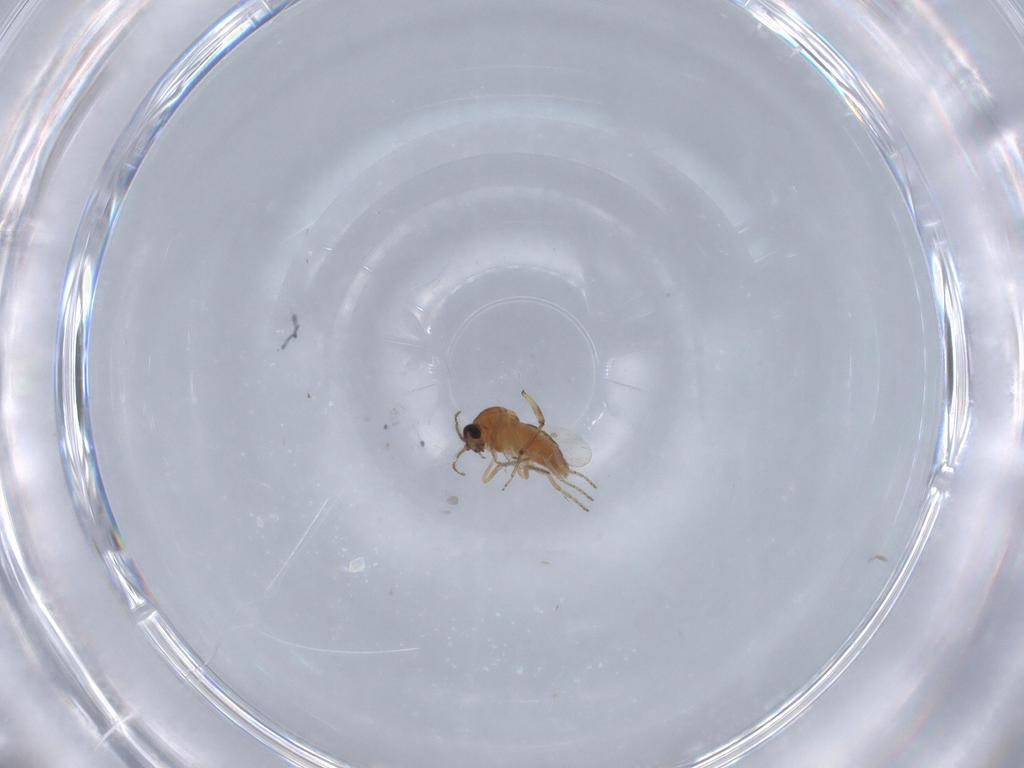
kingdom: Animalia
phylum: Arthropoda
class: Insecta
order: Diptera
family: Ceratopogonidae
